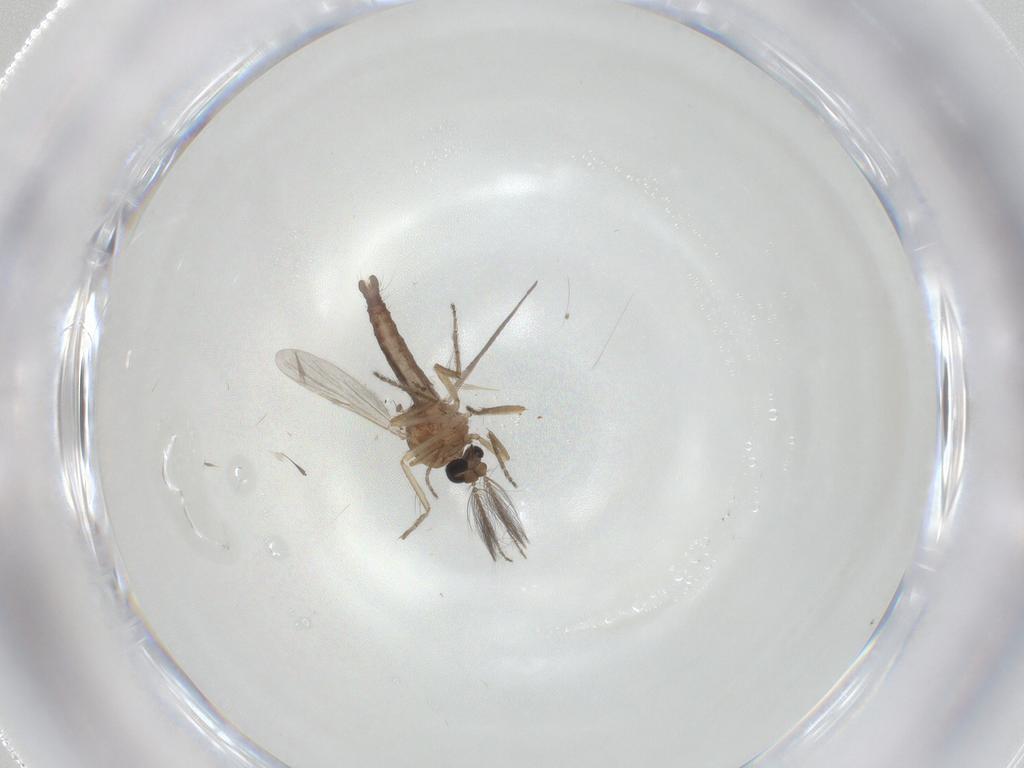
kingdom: Animalia
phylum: Arthropoda
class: Insecta
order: Diptera
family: Ceratopogonidae
